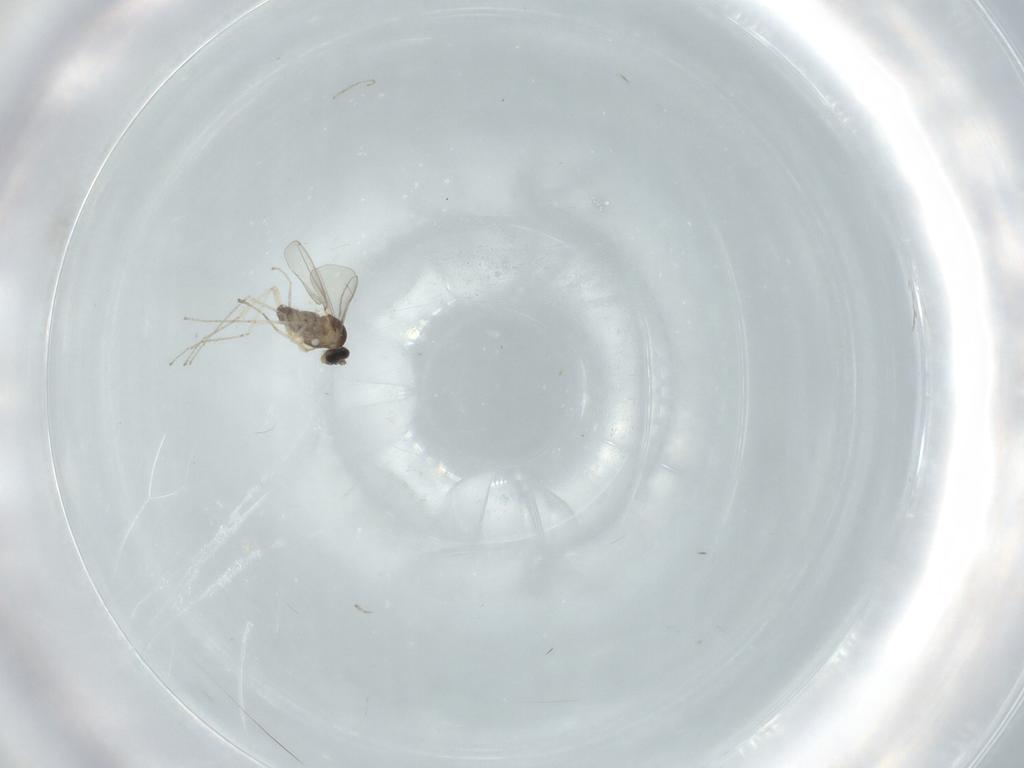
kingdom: Animalia
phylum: Arthropoda
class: Insecta
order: Diptera
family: Cecidomyiidae
